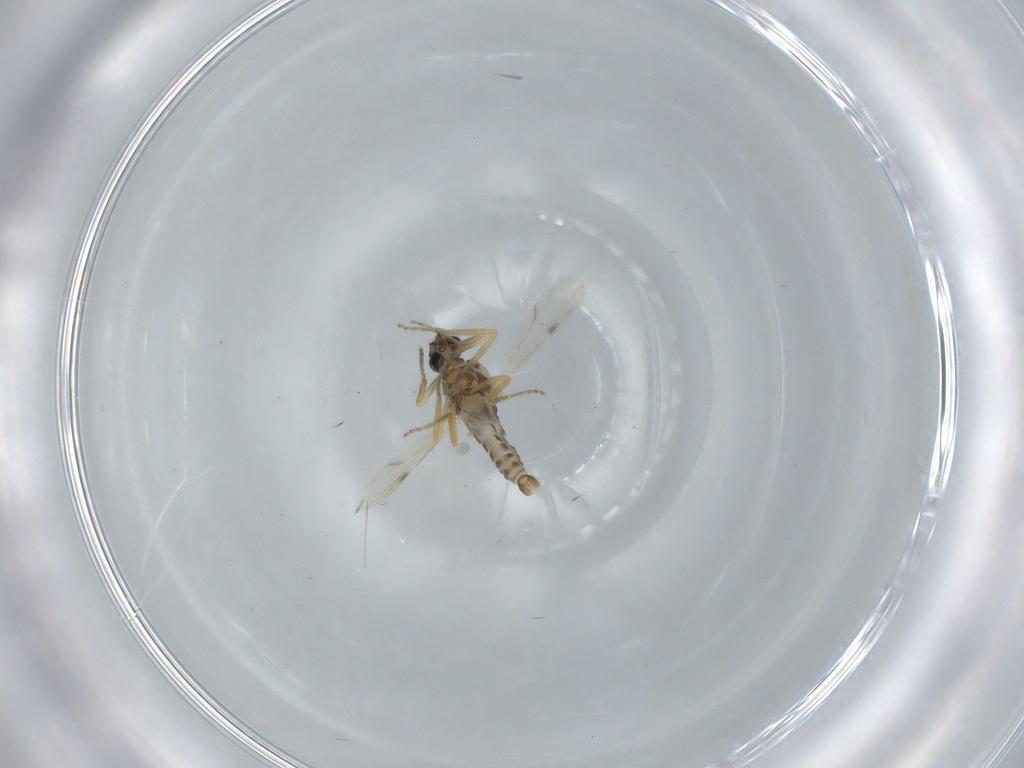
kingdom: Animalia
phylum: Arthropoda
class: Insecta
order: Diptera
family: Ceratopogonidae
